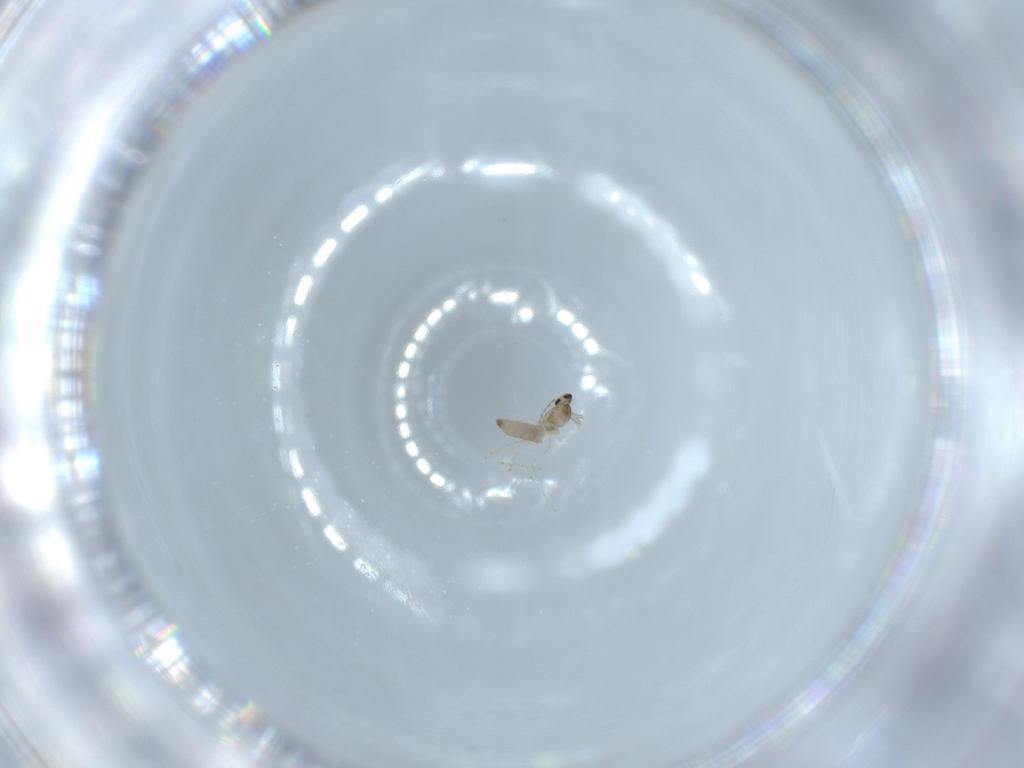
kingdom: Animalia
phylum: Arthropoda
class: Insecta
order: Diptera
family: Cecidomyiidae
